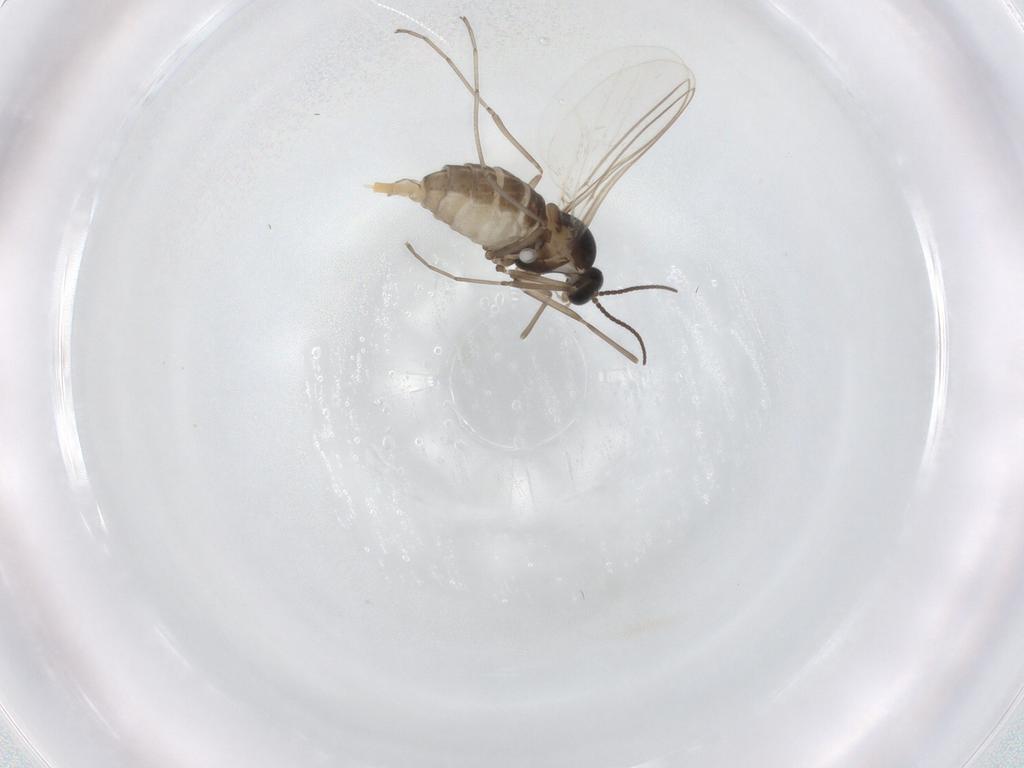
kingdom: Animalia
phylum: Arthropoda
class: Insecta
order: Diptera
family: Cecidomyiidae
